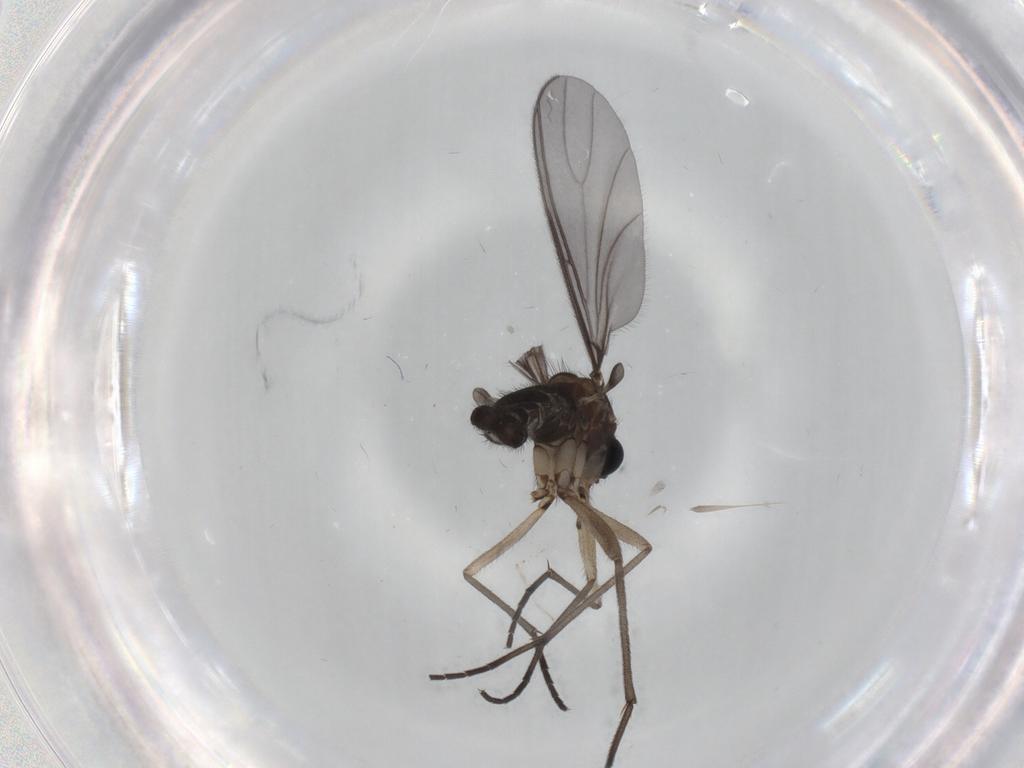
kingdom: Animalia
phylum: Arthropoda
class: Insecta
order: Diptera
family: Sciaridae
